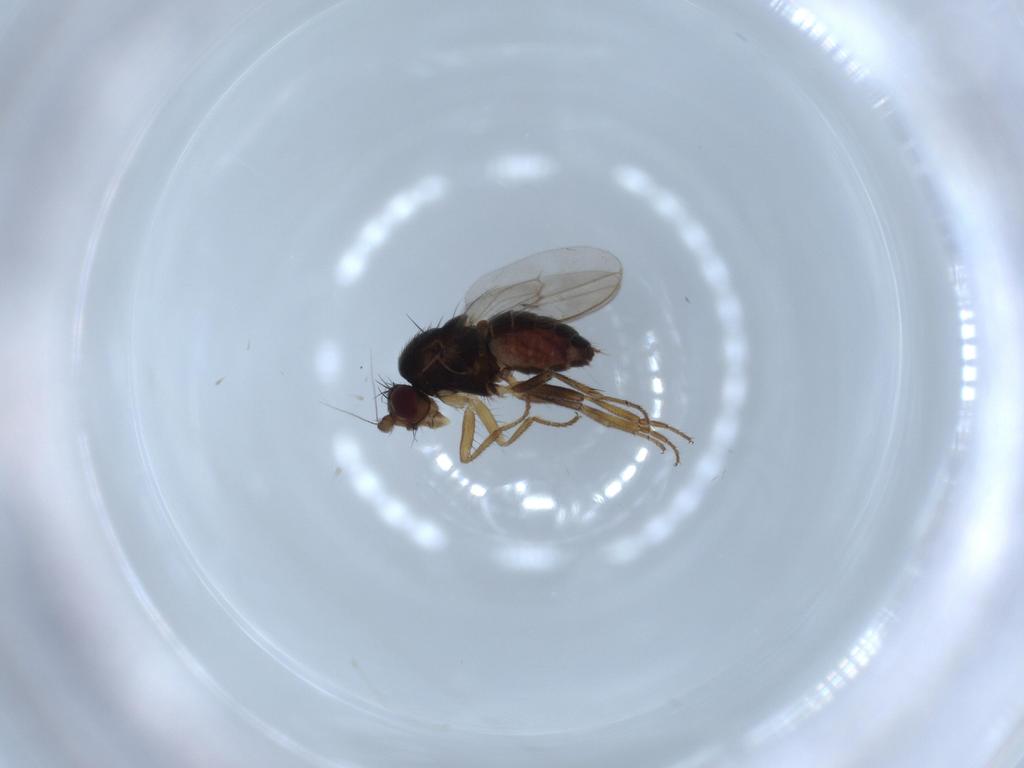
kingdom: Animalia
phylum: Arthropoda
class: Insecta
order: Diptera
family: Sphaeroceridae
